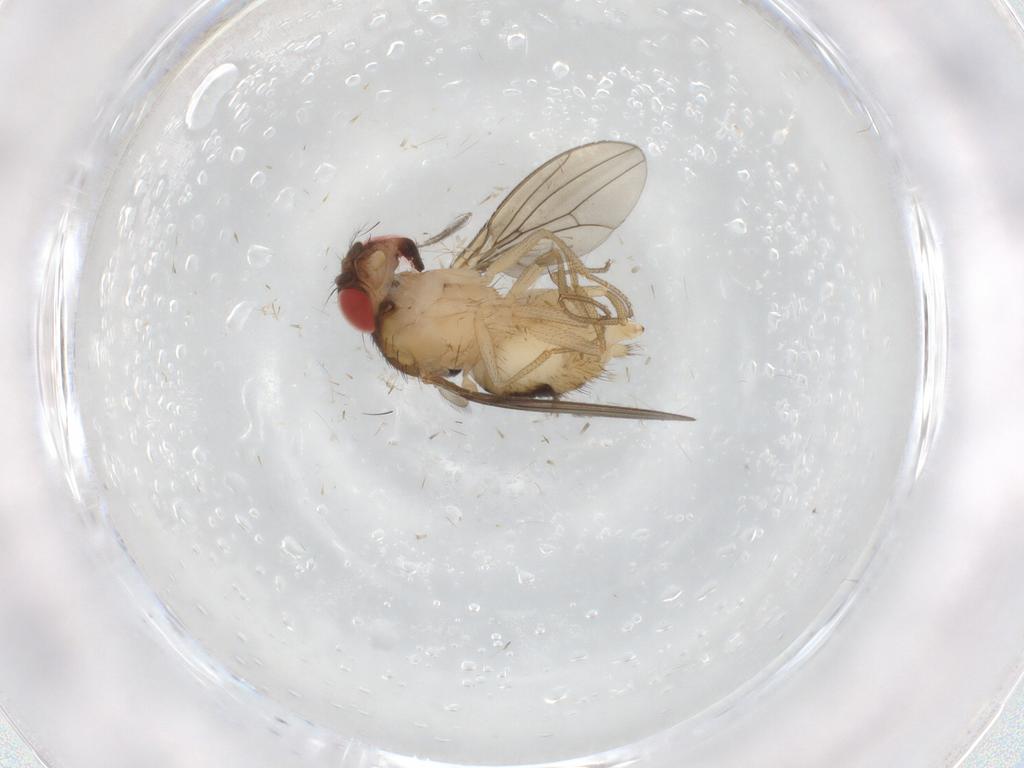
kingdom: Animalia
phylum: Arthropoda
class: Insecta
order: Diptera
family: Drosophilidae
